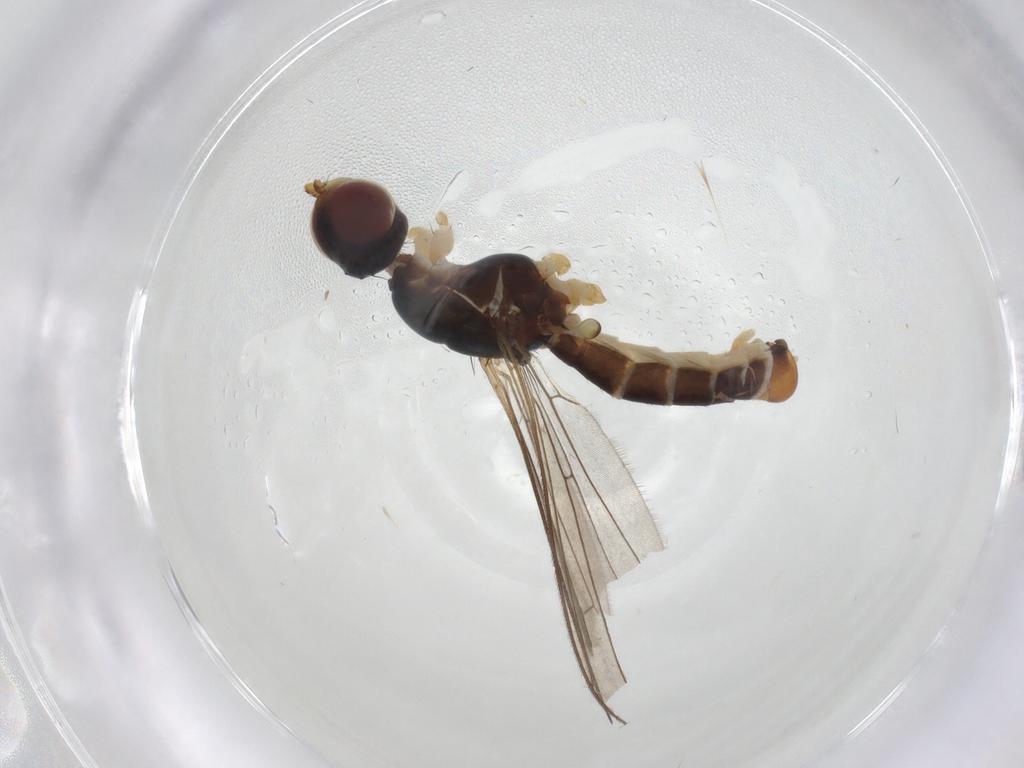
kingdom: Animalia
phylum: Arthropoda
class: Insecta
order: Diptera
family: Micropezidae
